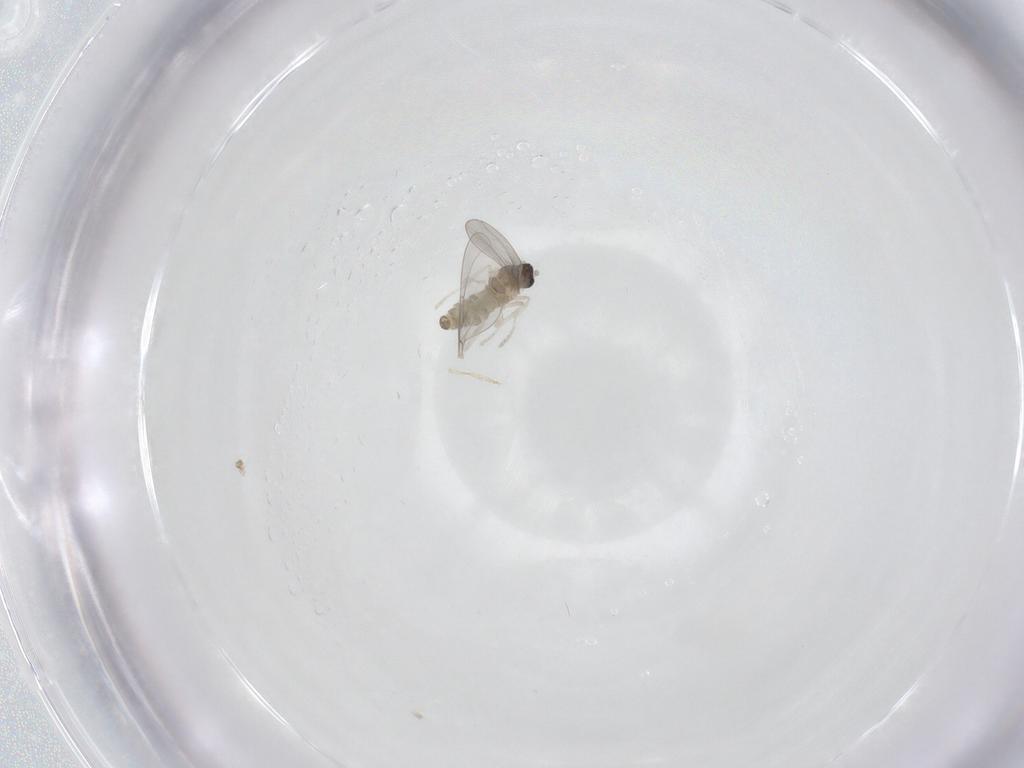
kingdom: Animalia
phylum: Arthropoda
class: Insecta
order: Diptera
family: Cecidomyiidae
